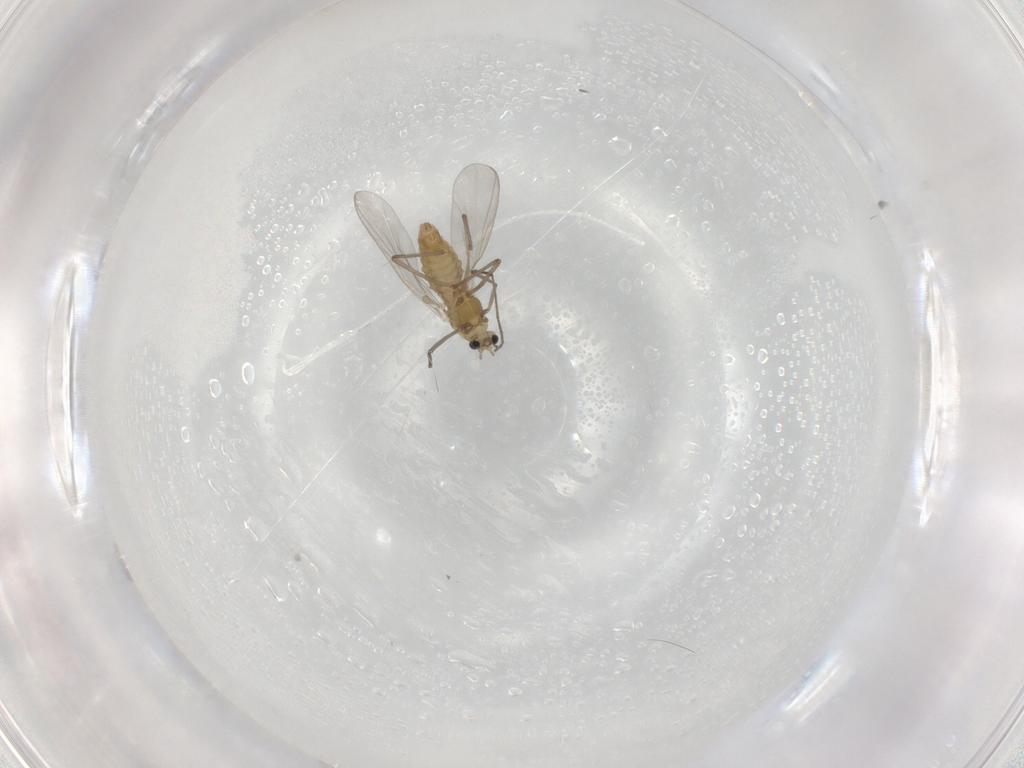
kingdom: Animalia
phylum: Arthropoda
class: Insecta
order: Diptera
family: Chironomidae
